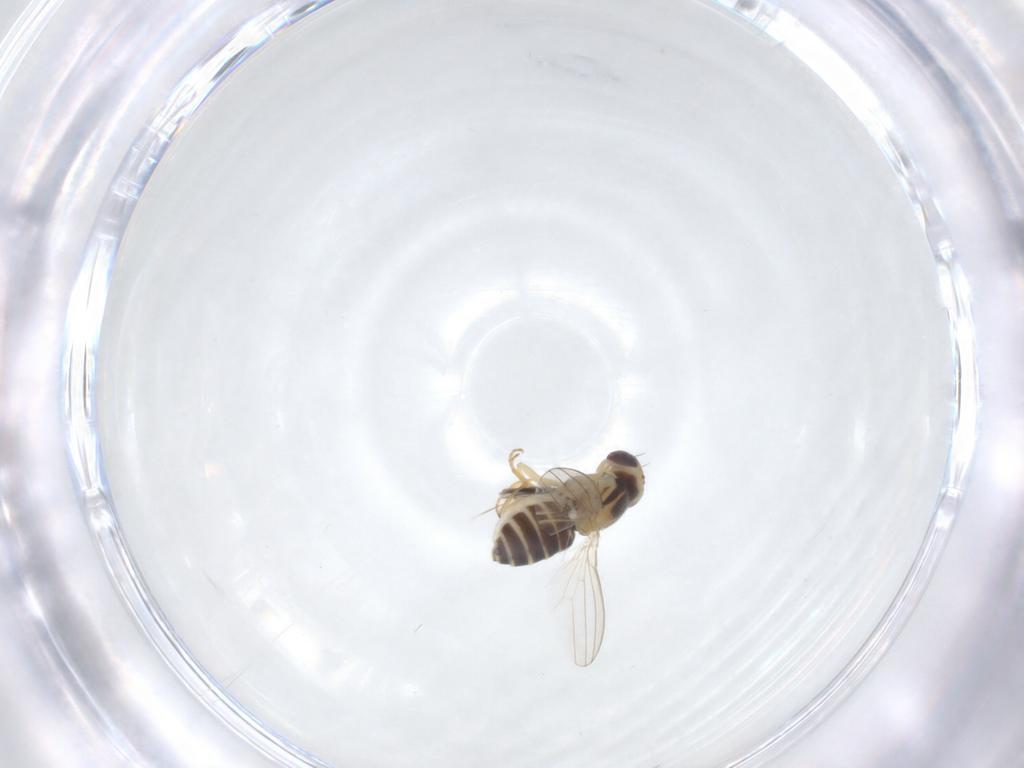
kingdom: Animalia
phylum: Arthropoda
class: Insecta
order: Diptera
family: Chyromyidae
